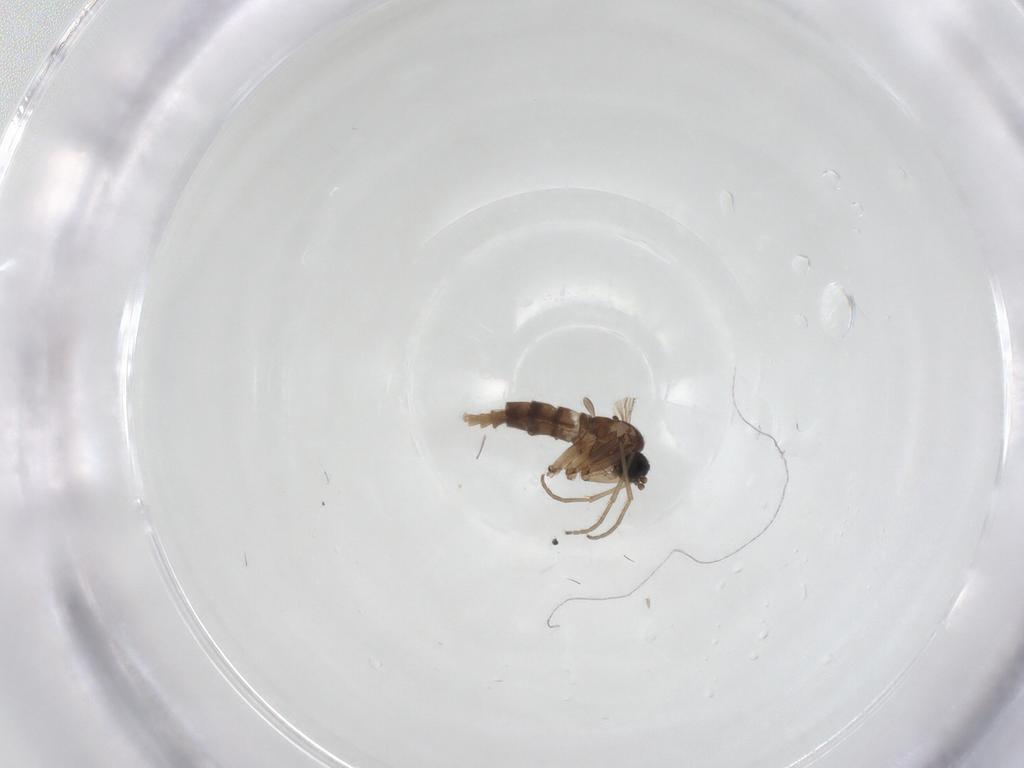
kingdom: Animalia
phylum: Arthropoda
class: Insecta
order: Diptera
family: Sciaridae
